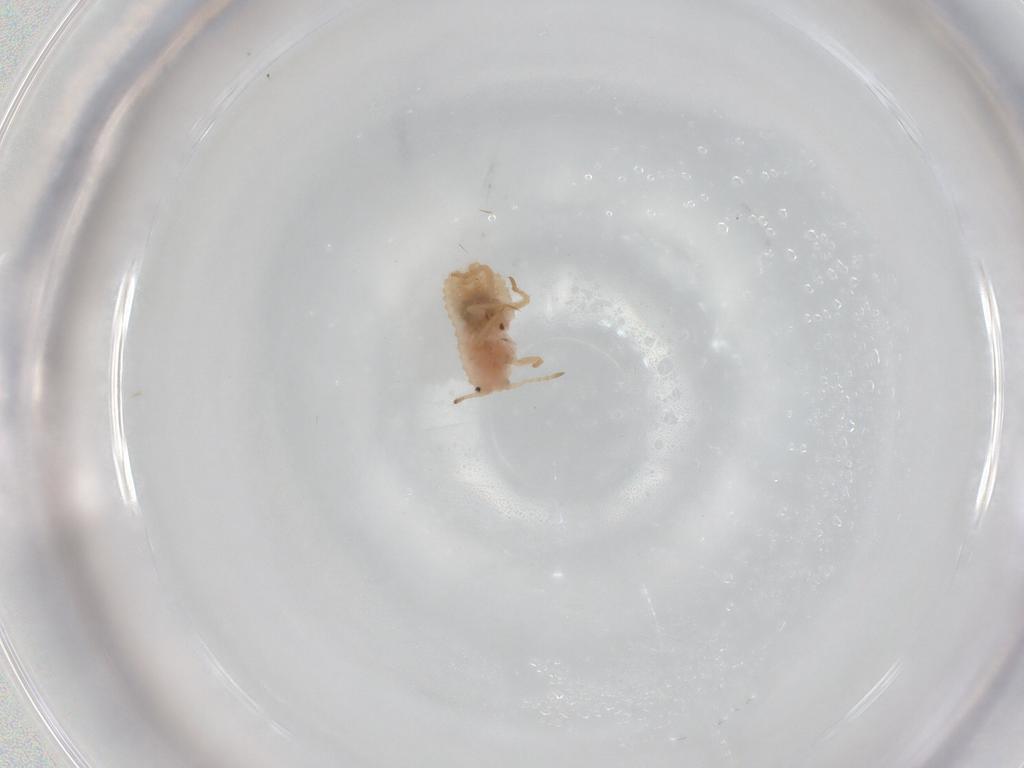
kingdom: Animalia
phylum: Arthropoda
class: Insecta
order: Hemiptera
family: Coccoidea_incertae_sedis
